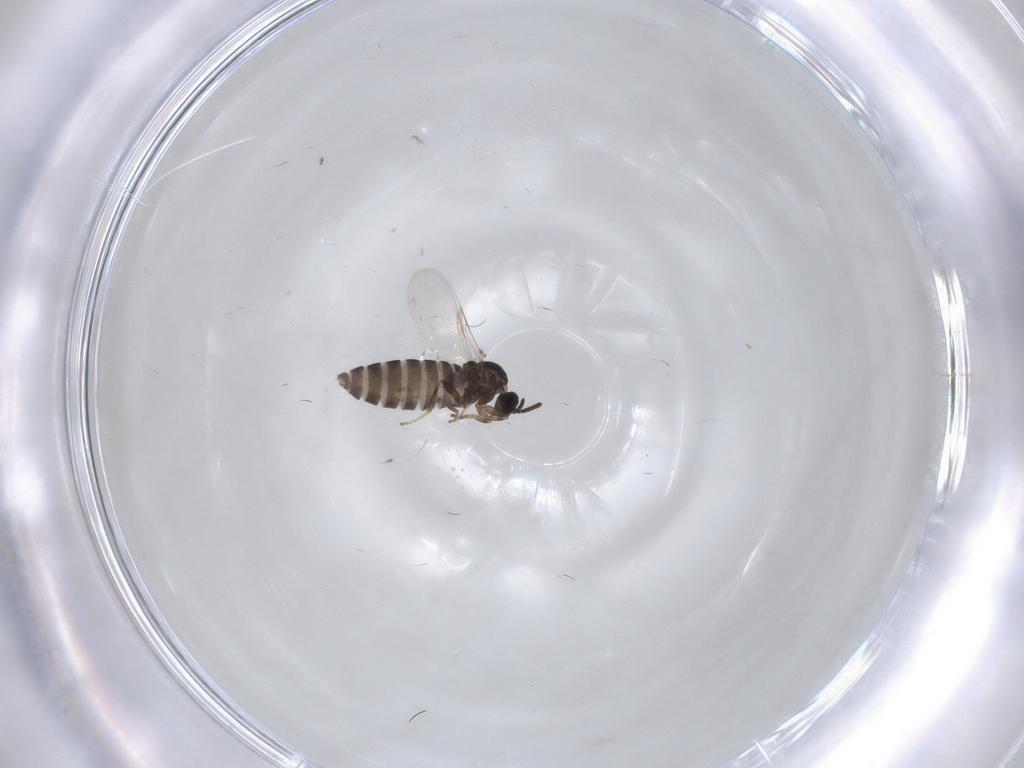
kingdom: Animalia
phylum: Arthropoda
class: Insecta
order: Diptera
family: Scatopsidae
